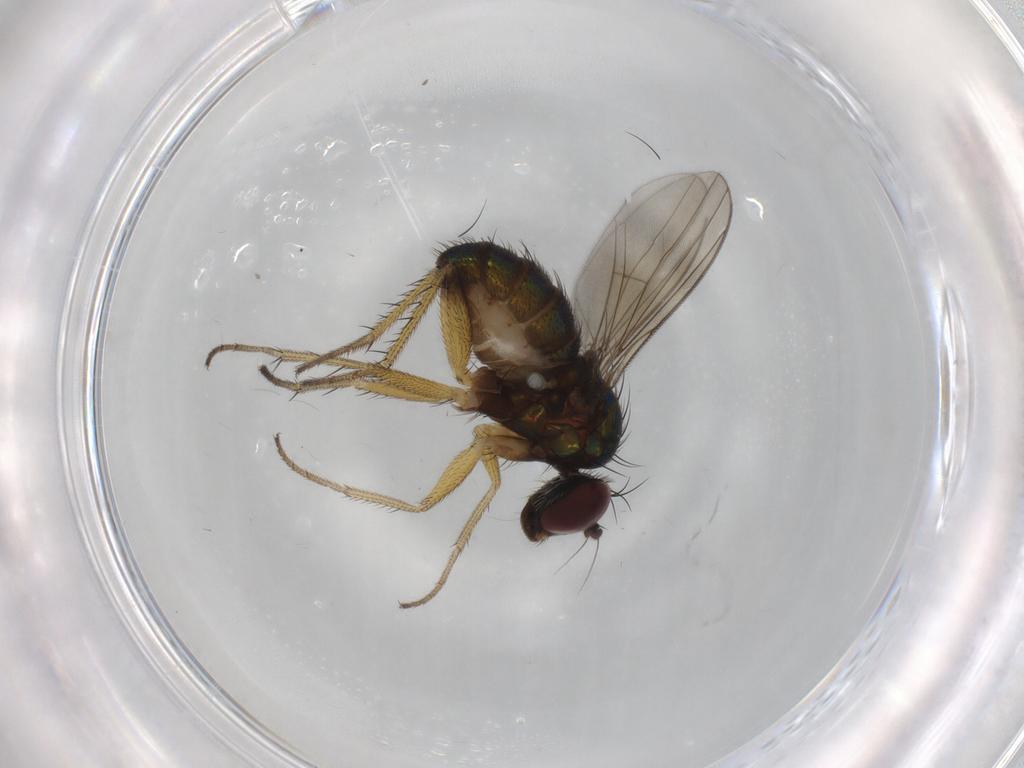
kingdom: Animalia
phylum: Arthropoda
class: Insecta
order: Diptera
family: Dolichopodidae
